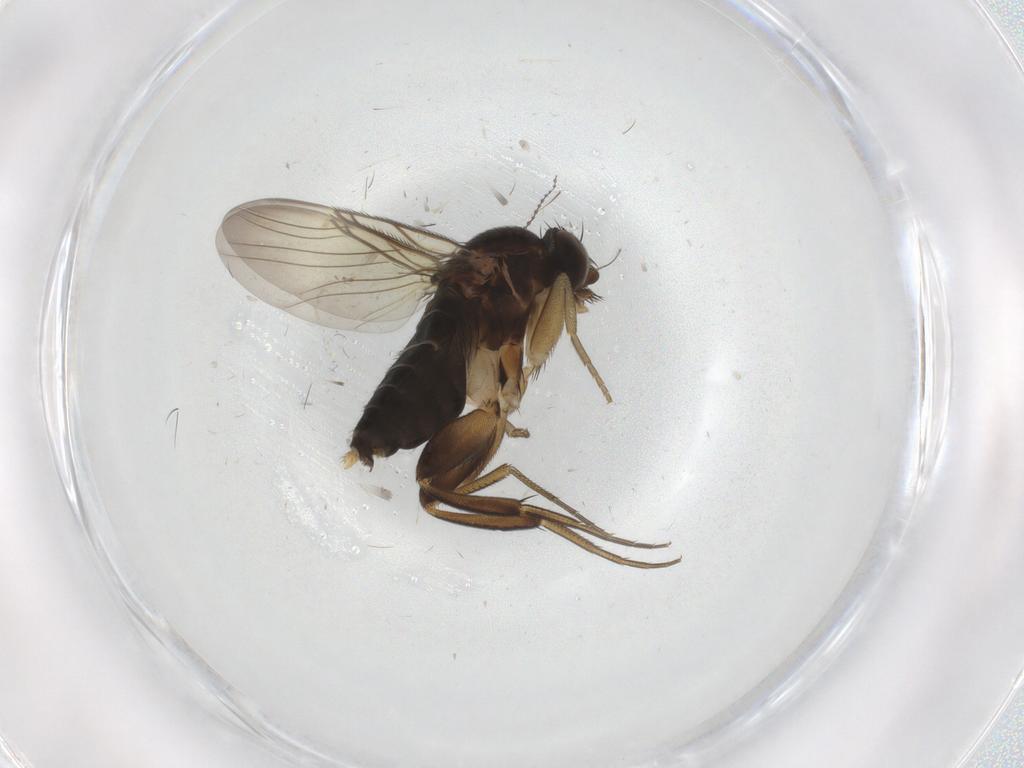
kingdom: Animalia
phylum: Arthropoda
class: Insecta
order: Diptera
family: Phoridae
